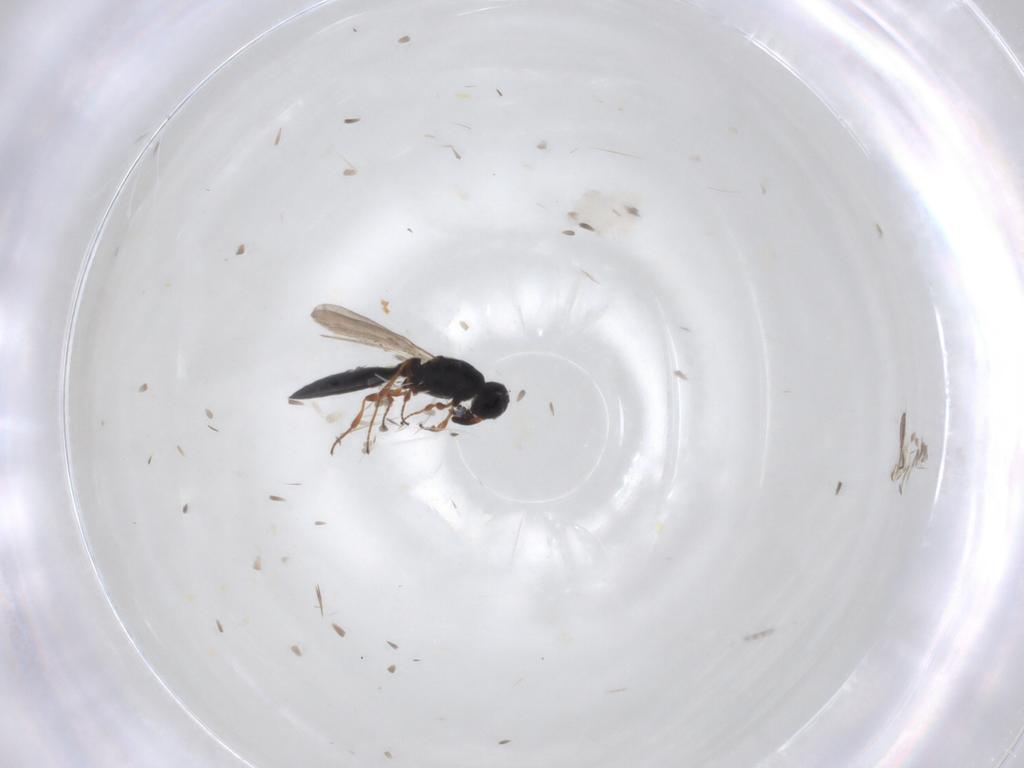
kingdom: Animalia
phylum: Arthropoda
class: Insecta
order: Hymenoptera
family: Platygastridae
